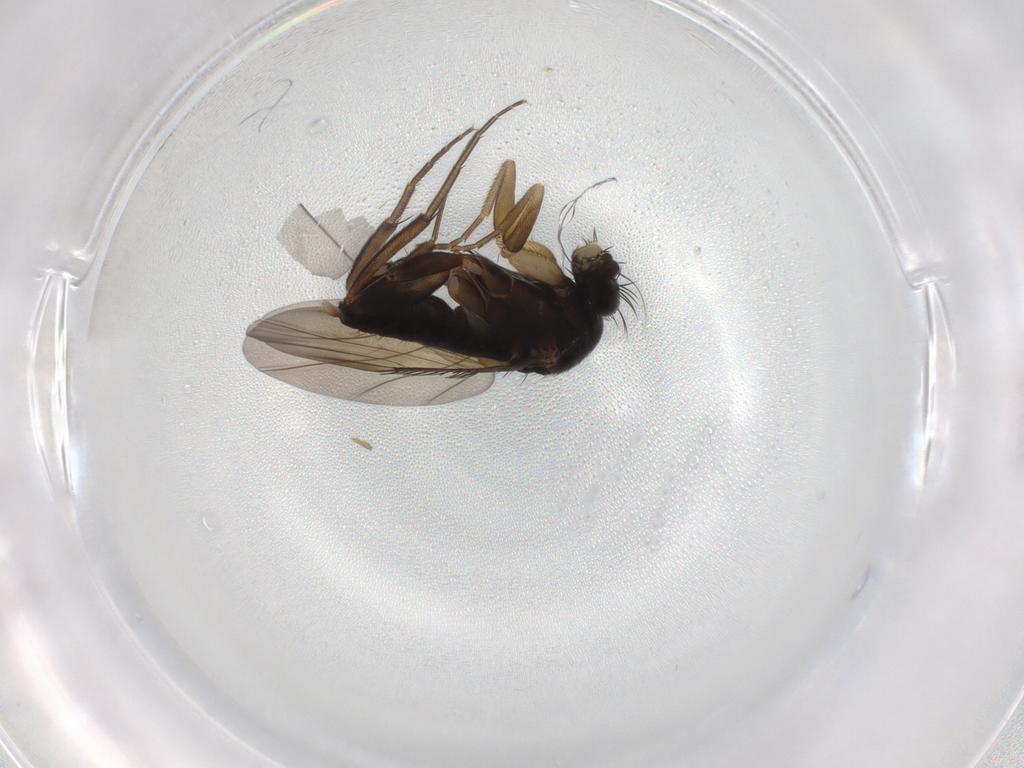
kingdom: Animalia
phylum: Arthropoda
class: Insecta
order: Diptera
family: Phoridae
